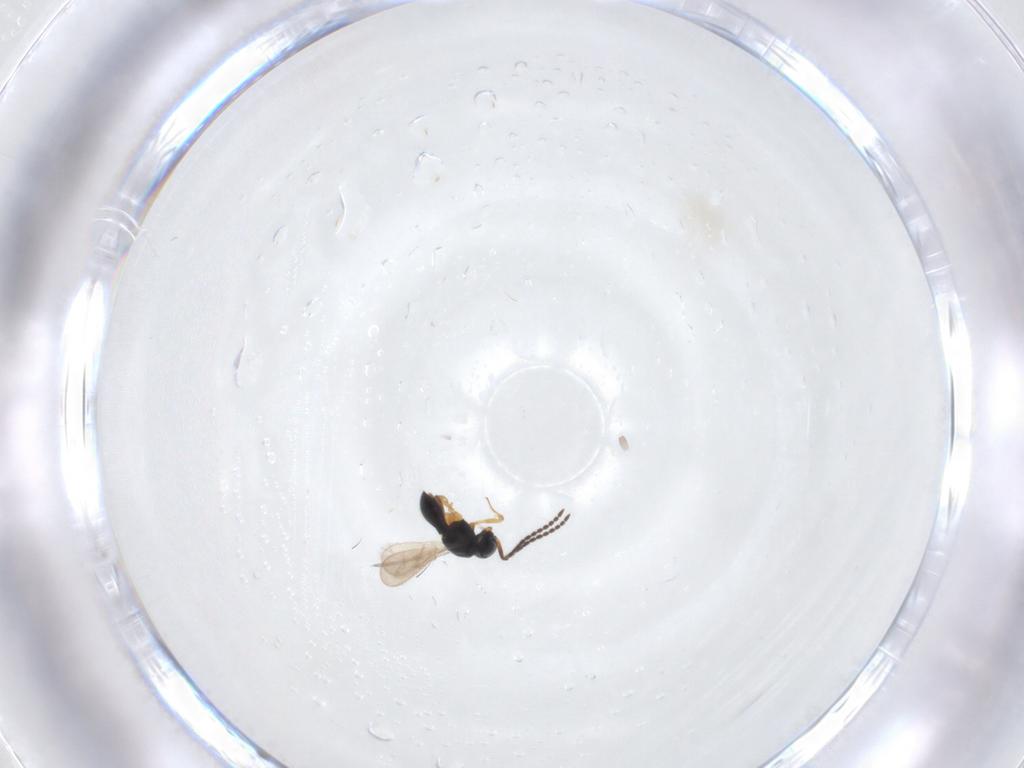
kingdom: Animalia
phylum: Arthropoda
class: Insecta
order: Hymenoptera
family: Scelionidae
